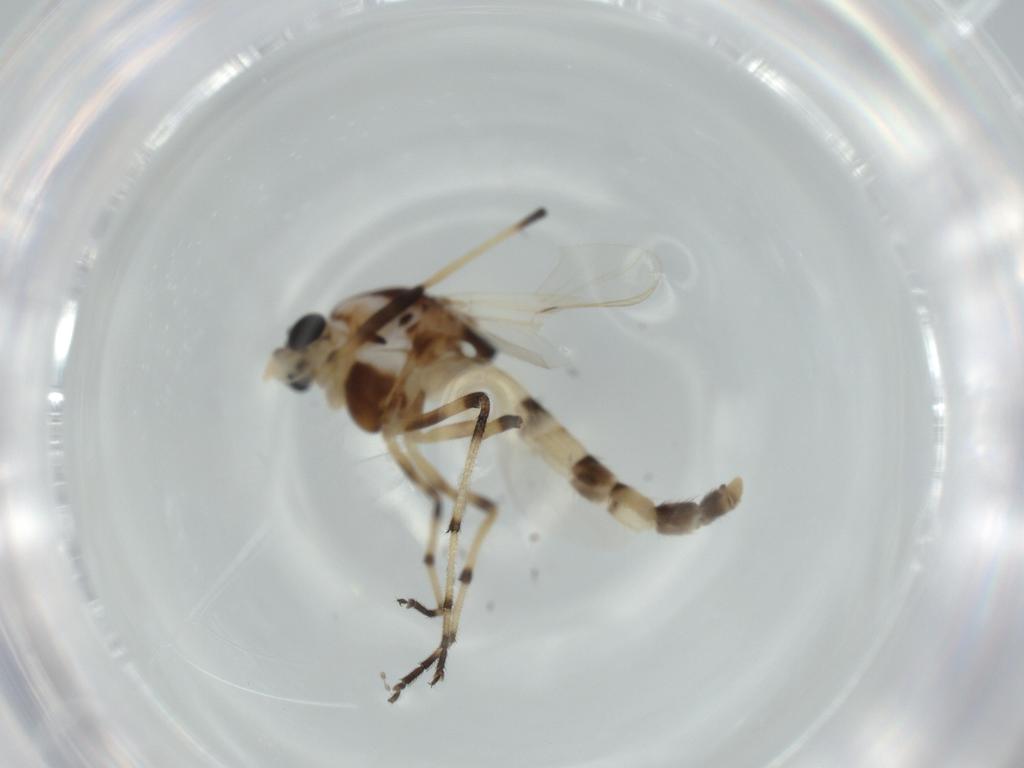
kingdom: Animalia
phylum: Arthropoda
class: Insecta
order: Diptera
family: Chironomidae
